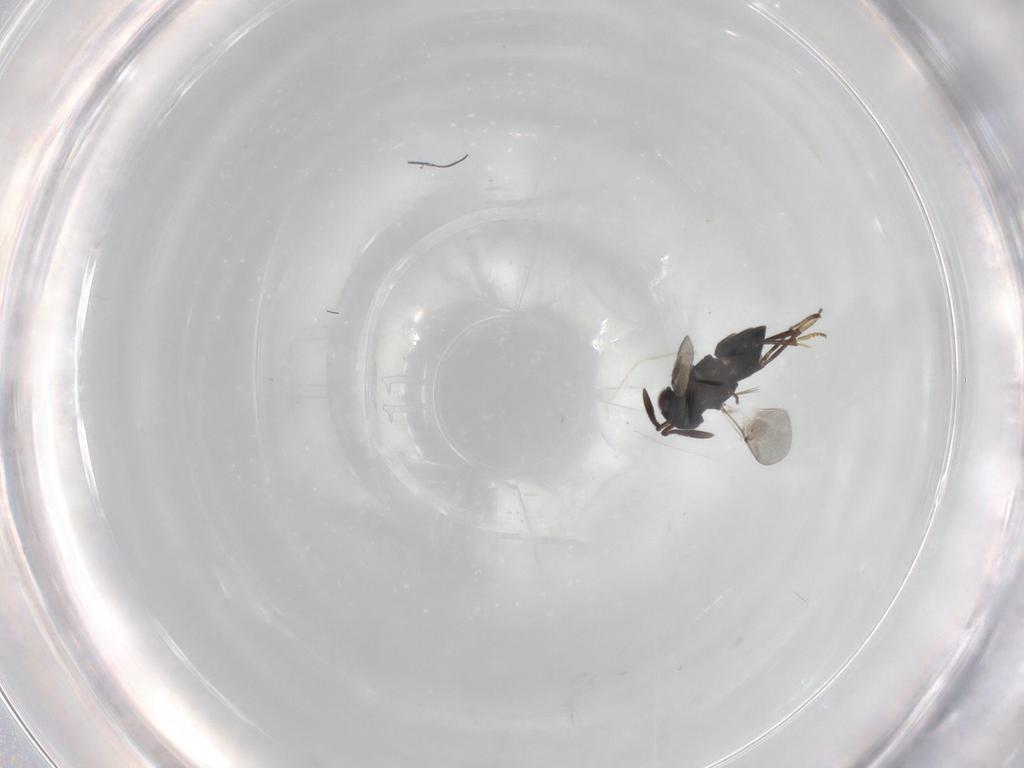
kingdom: Animalia
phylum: Arthropoda
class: Insecta
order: Hymenoptera
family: Encyrtidae
